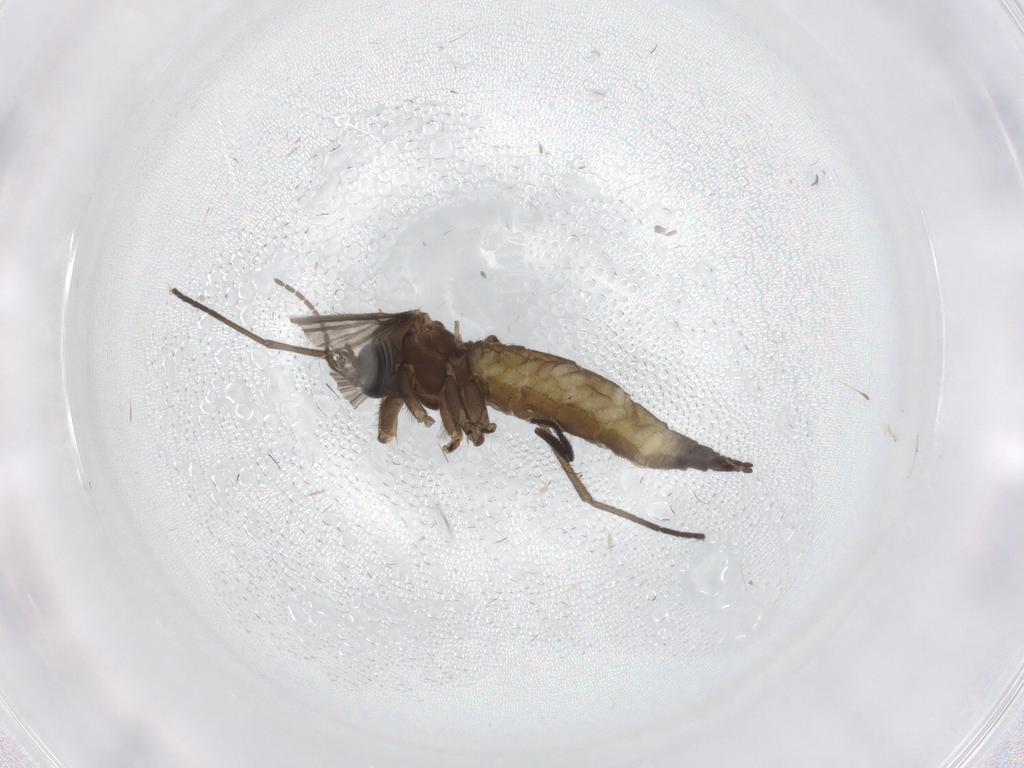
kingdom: Animalia
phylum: Arthropoda
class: Insecta
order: Diptera
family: Sciaridae
